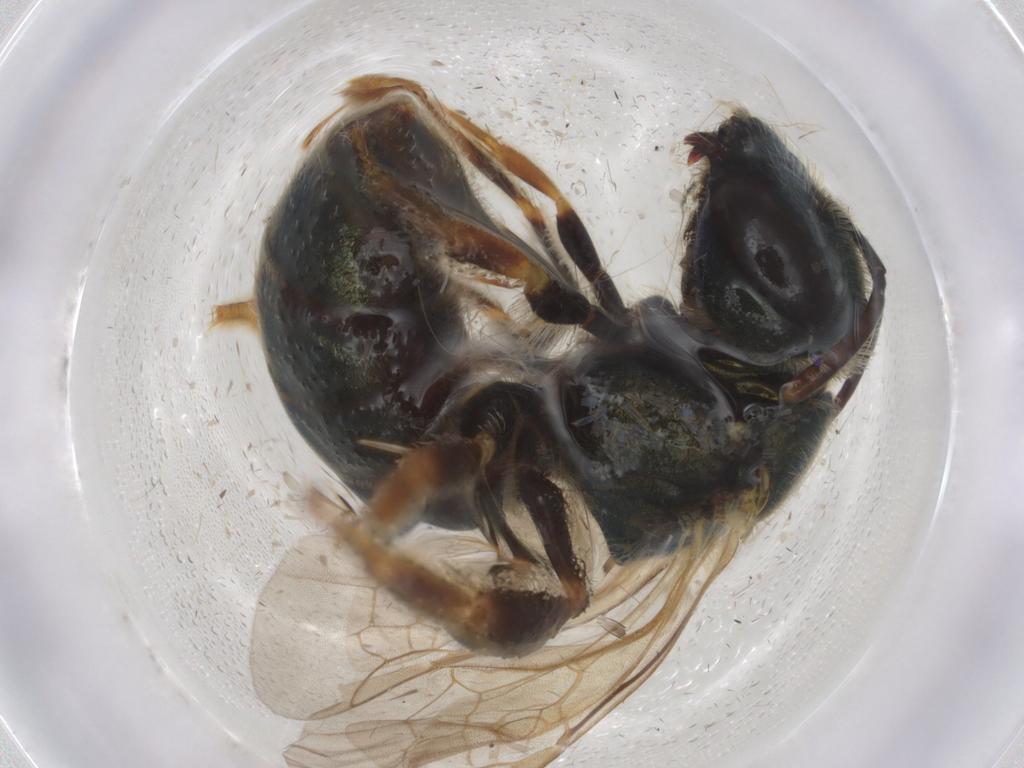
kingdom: Animalia
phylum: Arthropoda
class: Insecta
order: Hymenoptera
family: Halictidae
